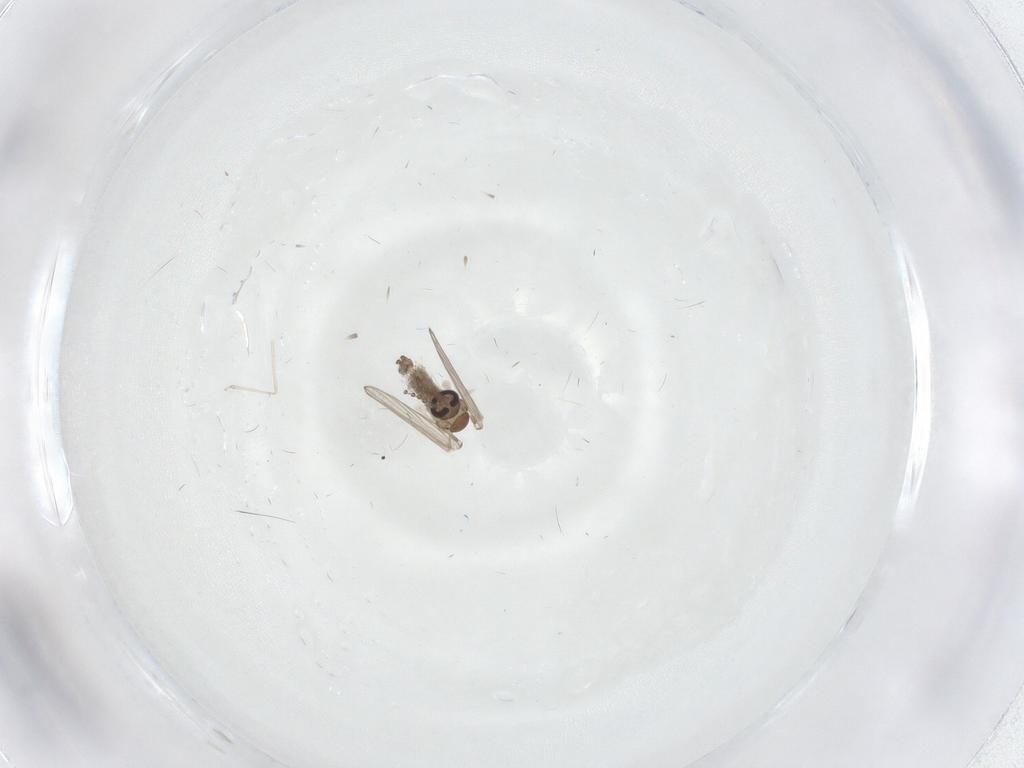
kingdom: Animalia
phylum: Arthropoda
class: Insecta
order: Diptera
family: Psychodidae
